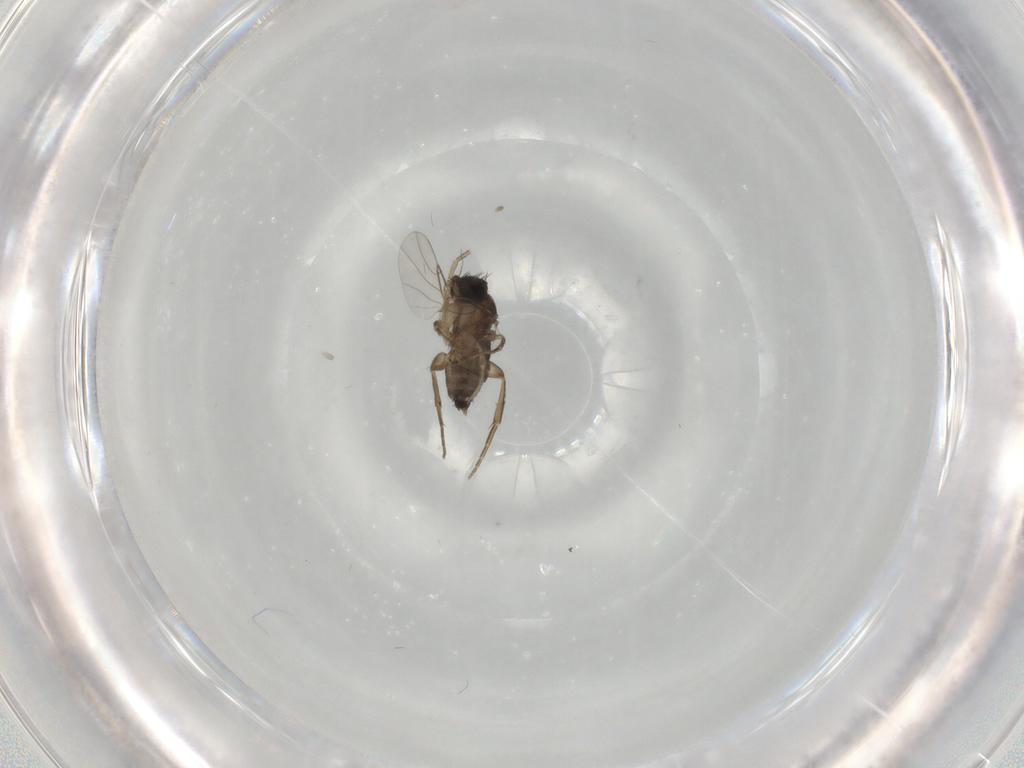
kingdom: Animalia
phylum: Arthropoda
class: Insecta
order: Diptera
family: Phoridae
